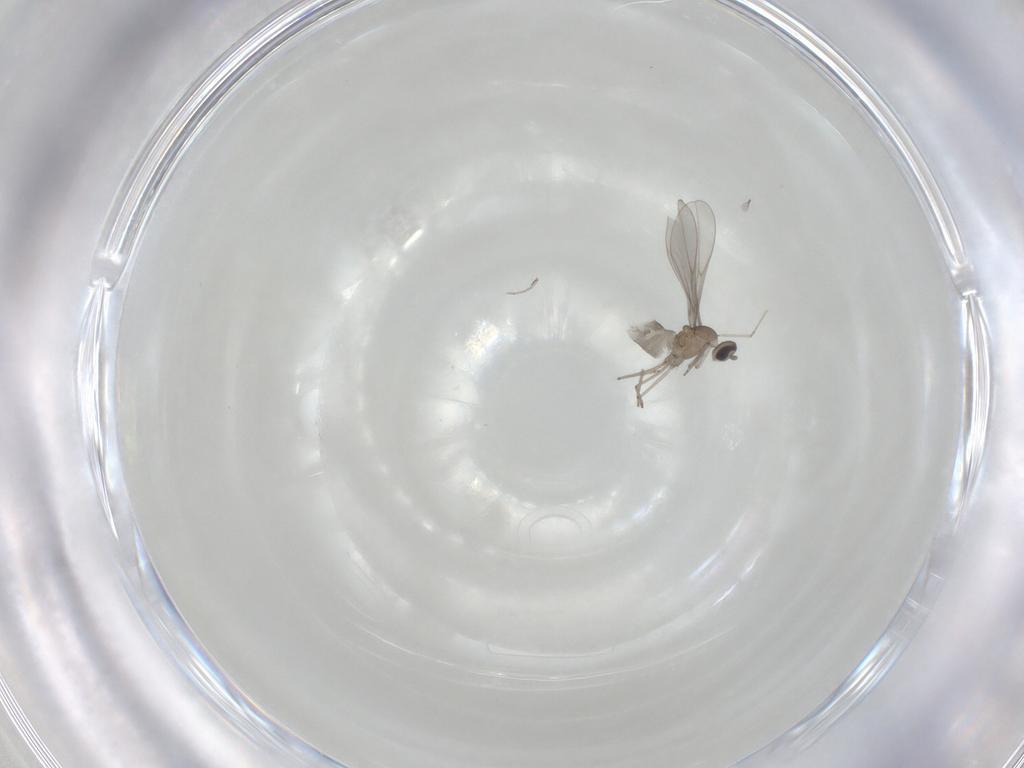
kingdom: Animalia
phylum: Arthropoda
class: Insecta
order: Diptera
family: Cecidomyiidae
